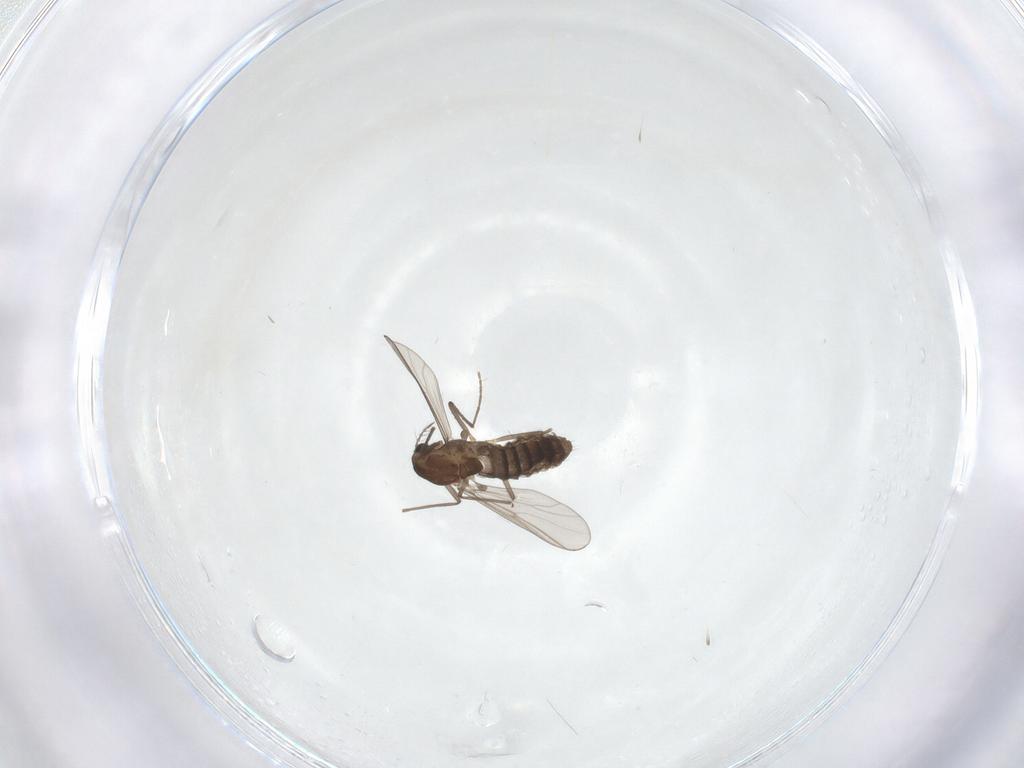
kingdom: Animalia
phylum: Arthropoda
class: Insecta
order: Diptera
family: Chironomidae
